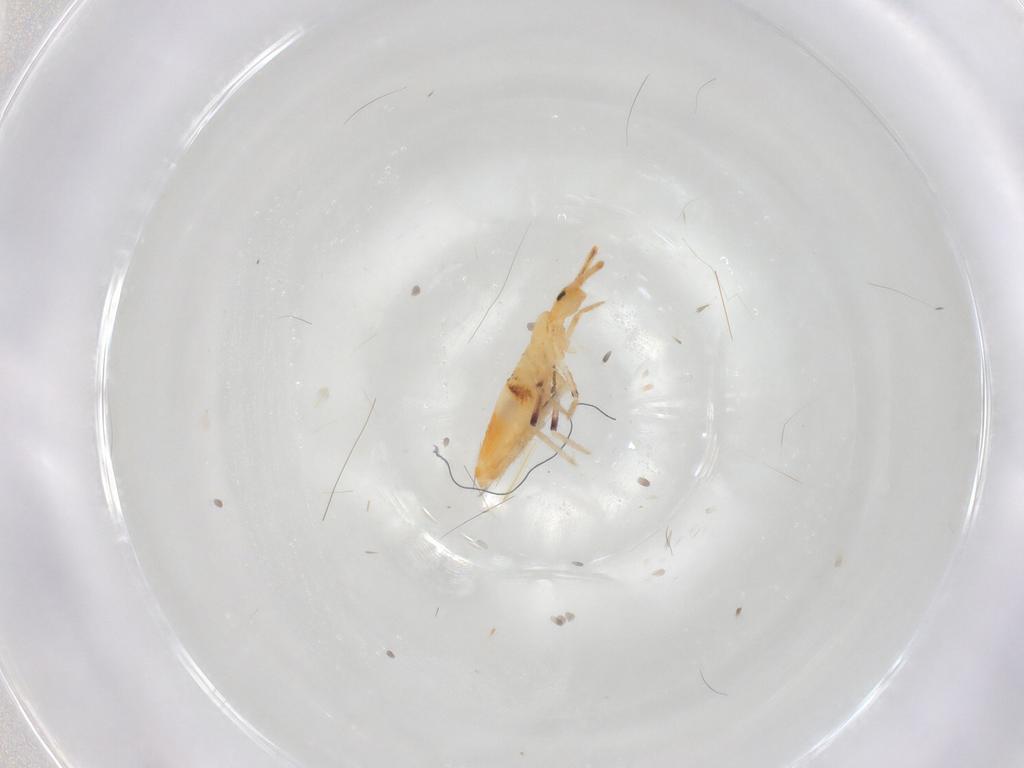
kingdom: Animalia
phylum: Arthropoda
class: Collembola
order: Entomobryomorpha
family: Entomobryidae
